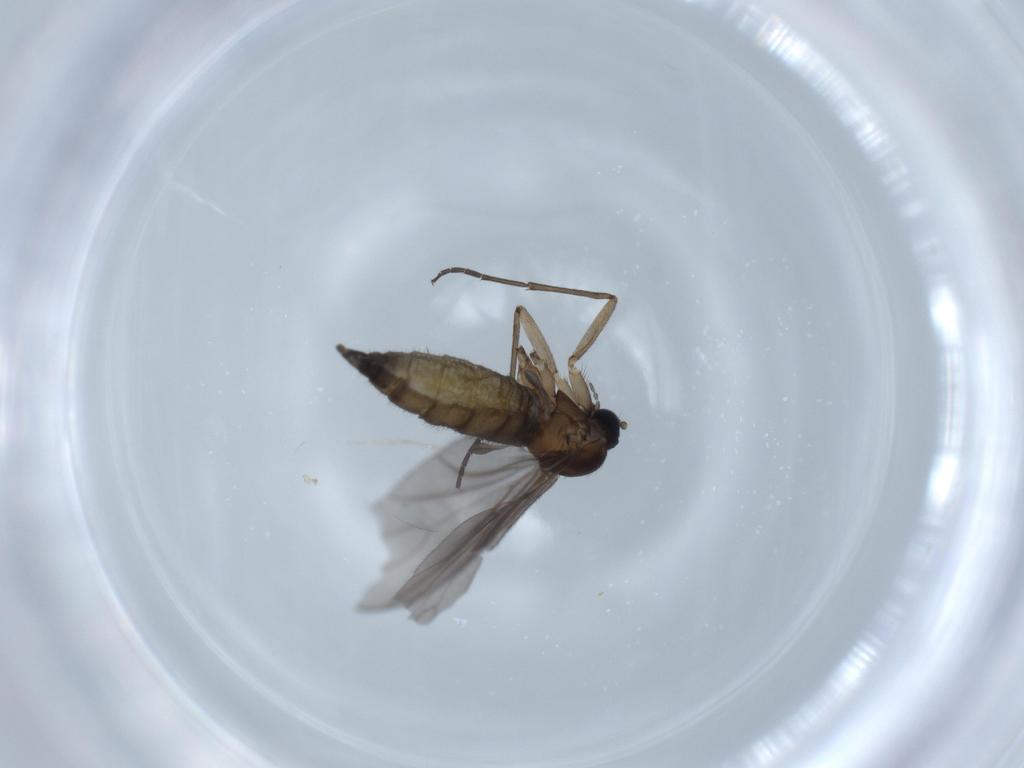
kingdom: Animalia
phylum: Arthropoda
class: Insecta
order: Diptera
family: Sciaridae
